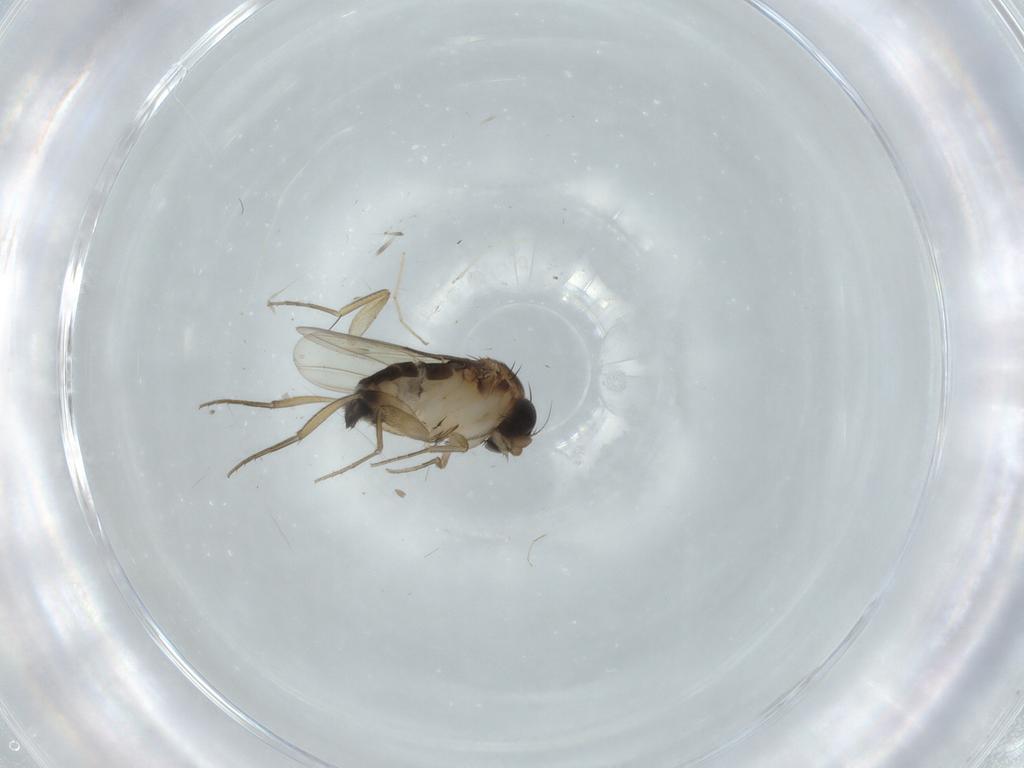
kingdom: Animalia
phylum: Arthropoda
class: Insecta
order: Diptera
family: Phoridae
